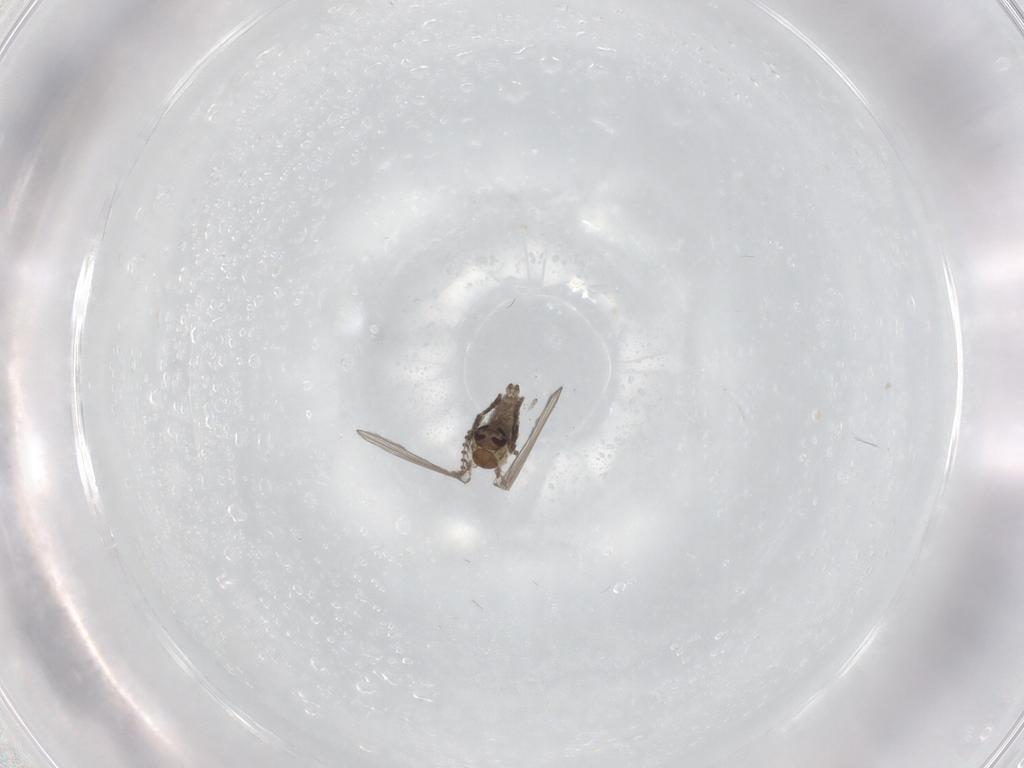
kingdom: Animalia
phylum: Arthropoda
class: Insecta
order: Diptera
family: Psychodidae
